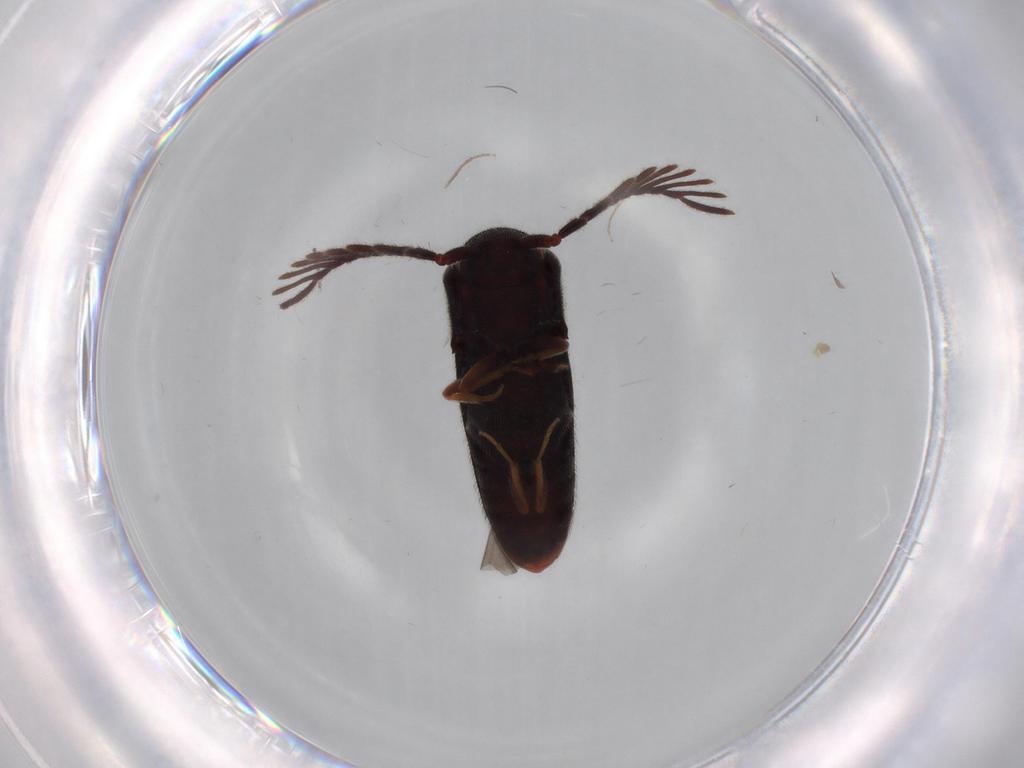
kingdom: Animalia
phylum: Arthropoda
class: Insecta
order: Coleoptera
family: Eucnemidae
